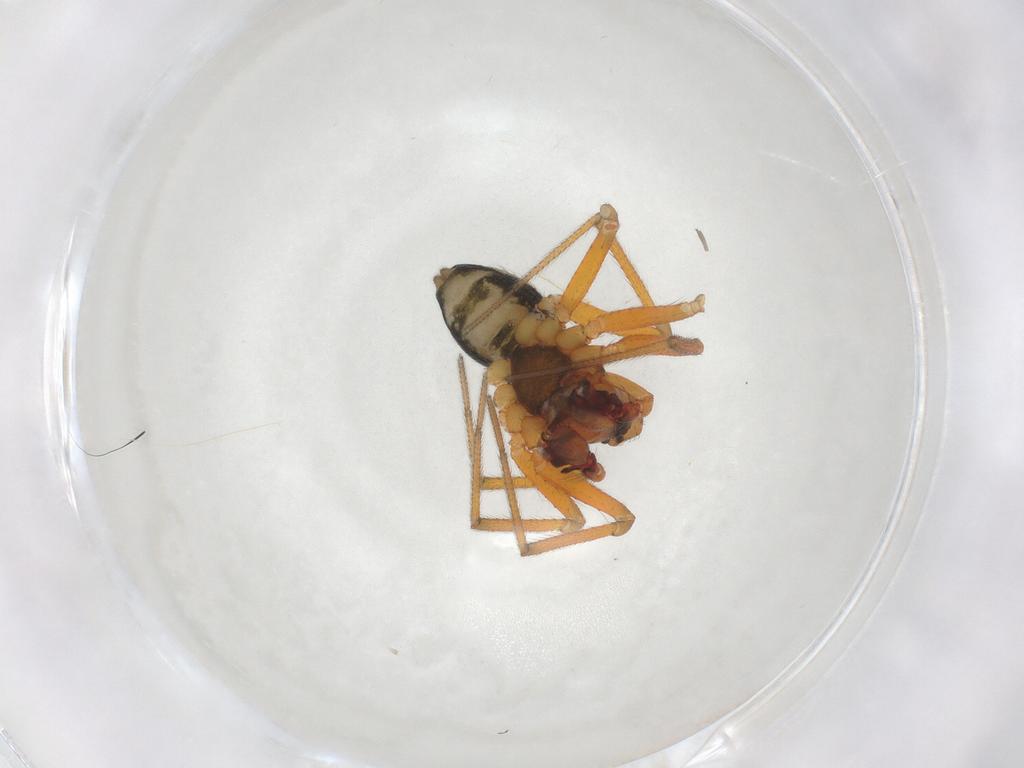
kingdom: Animalia
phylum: Arthropoda
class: Arachnida
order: Araneae
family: Linyphiidae
